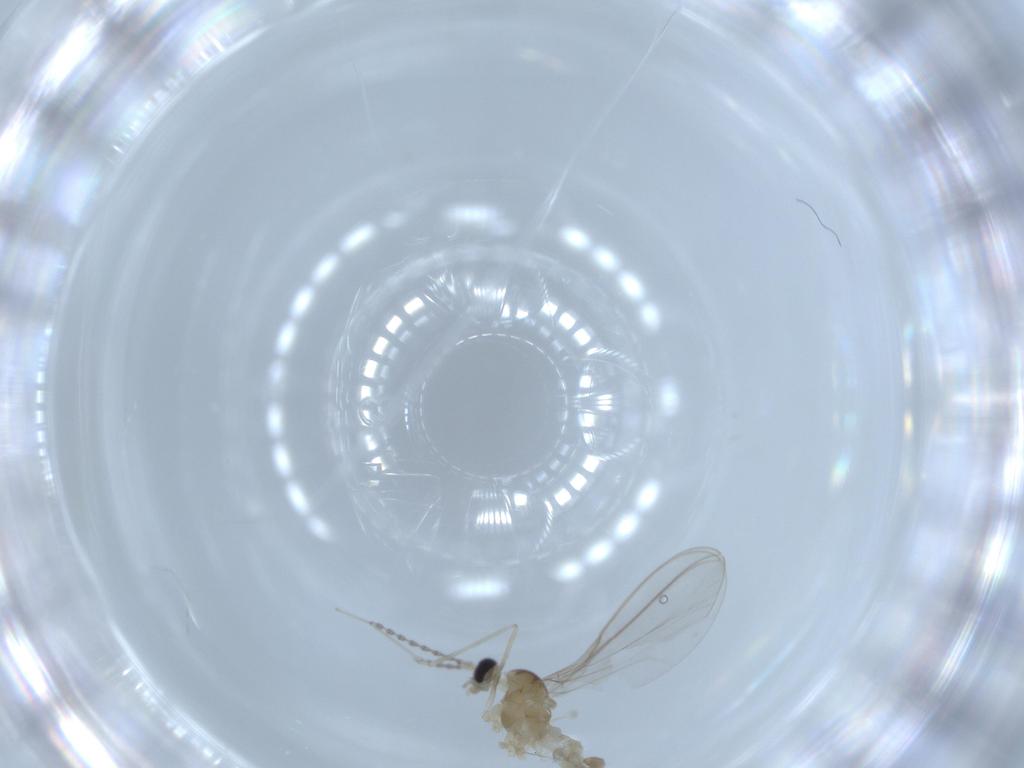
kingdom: Animalia
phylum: Arthropoda
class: Insecta
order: Diptera
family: Cecidomyiidae
